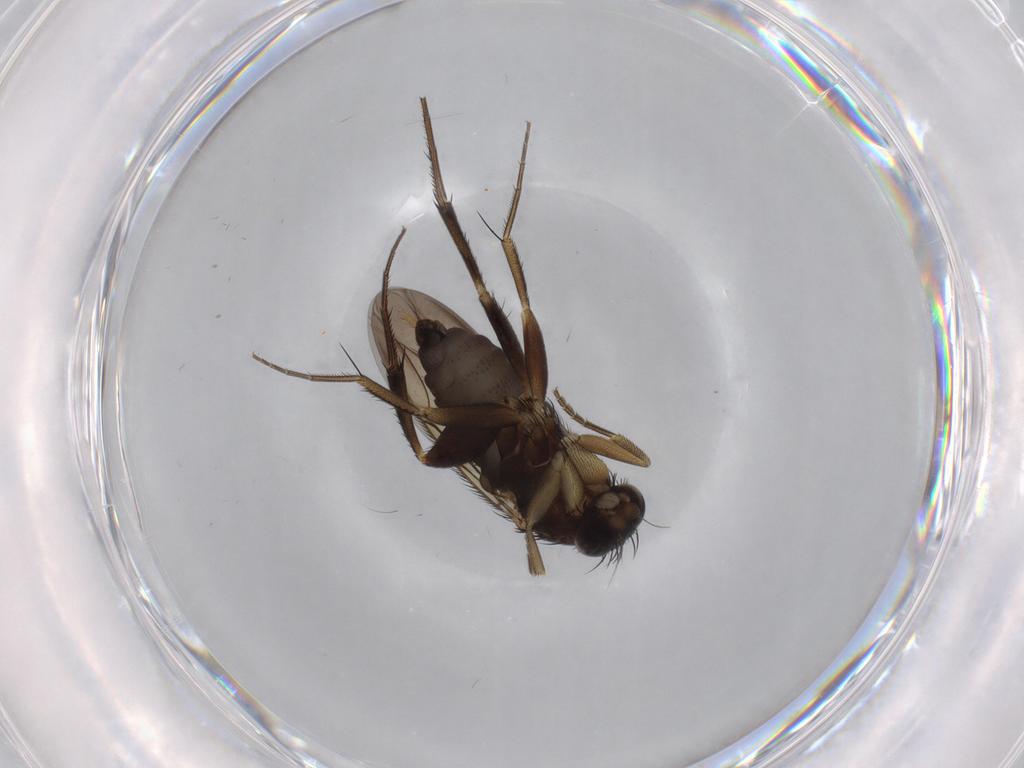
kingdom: Animalia
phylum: Arthropoda
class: Insecta
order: Diptera
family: Phoridae
